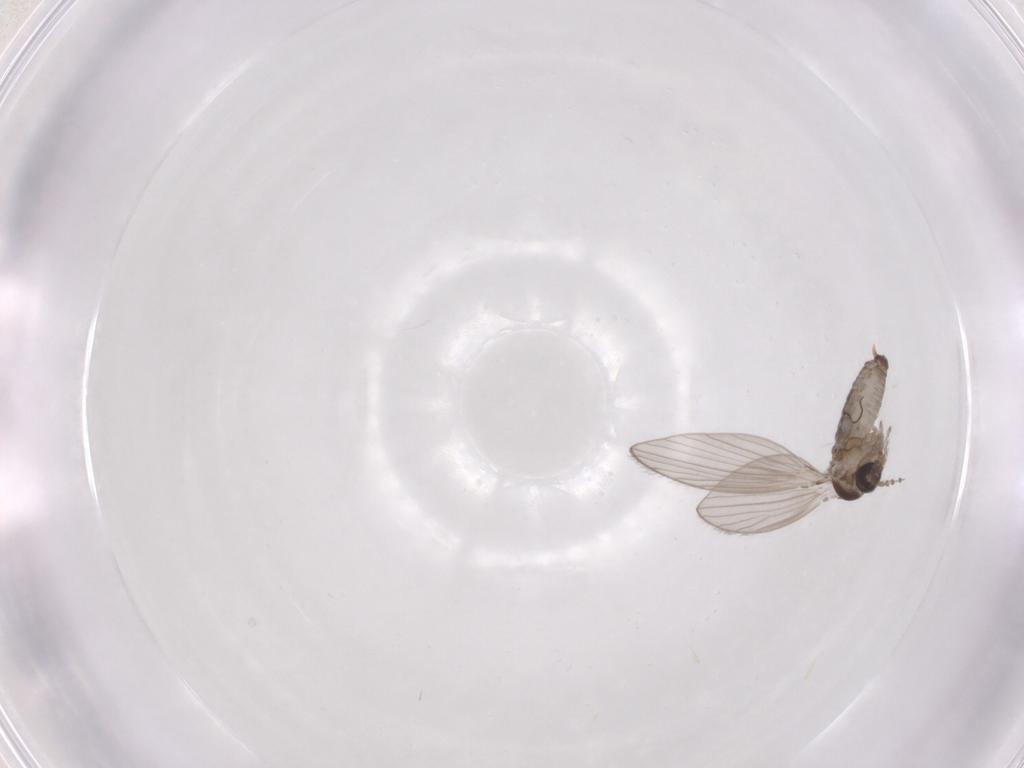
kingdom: Animalia
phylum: Arthropoda
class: Insecta
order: Diptera
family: Psychodidae
